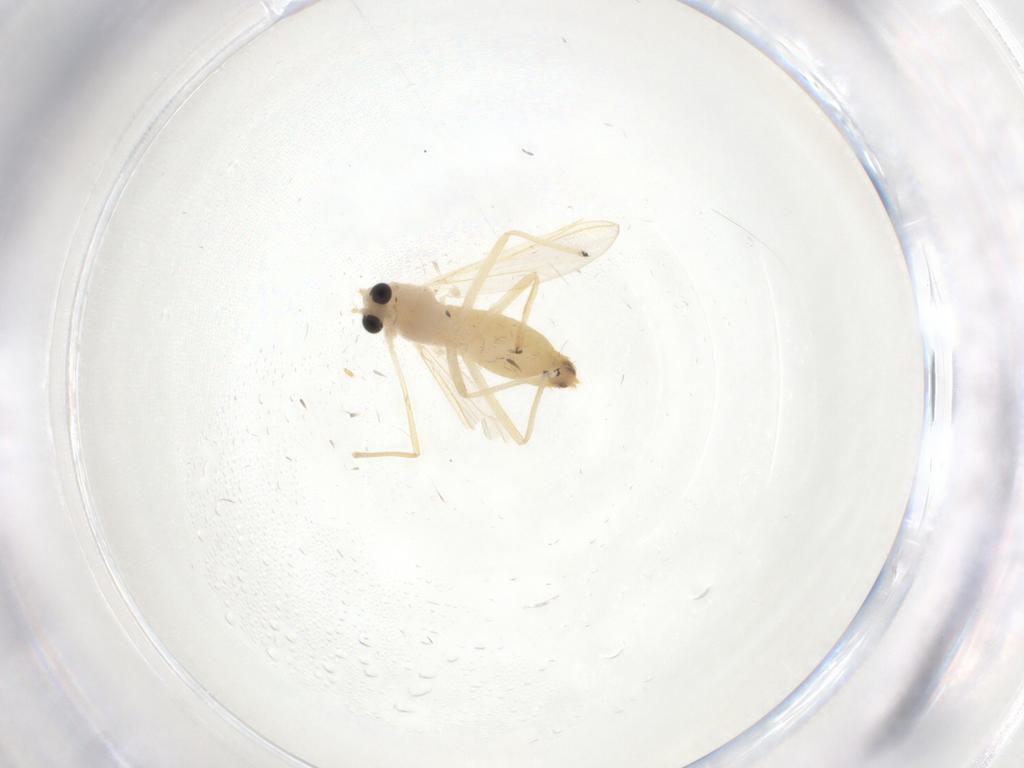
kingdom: Animalia
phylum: Arthropoda
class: Insecta
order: Diptera
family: Chironomidae
